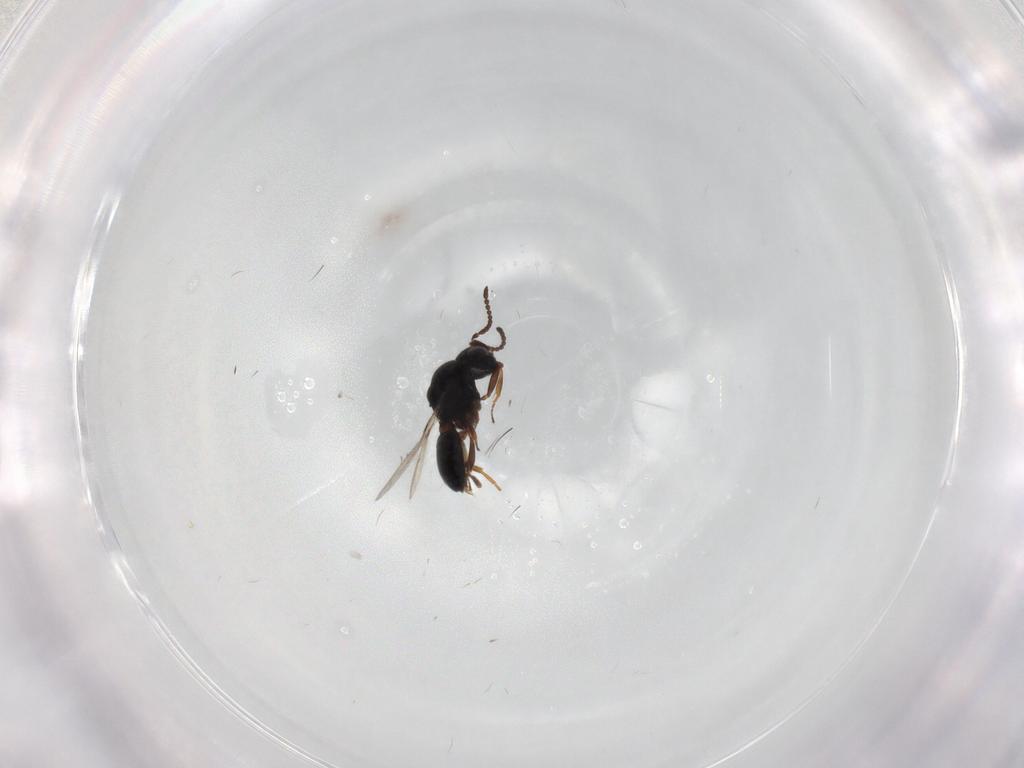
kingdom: Animalia
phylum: Arthropoda
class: Insecta
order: Hymenoptera
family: Scelionidae
